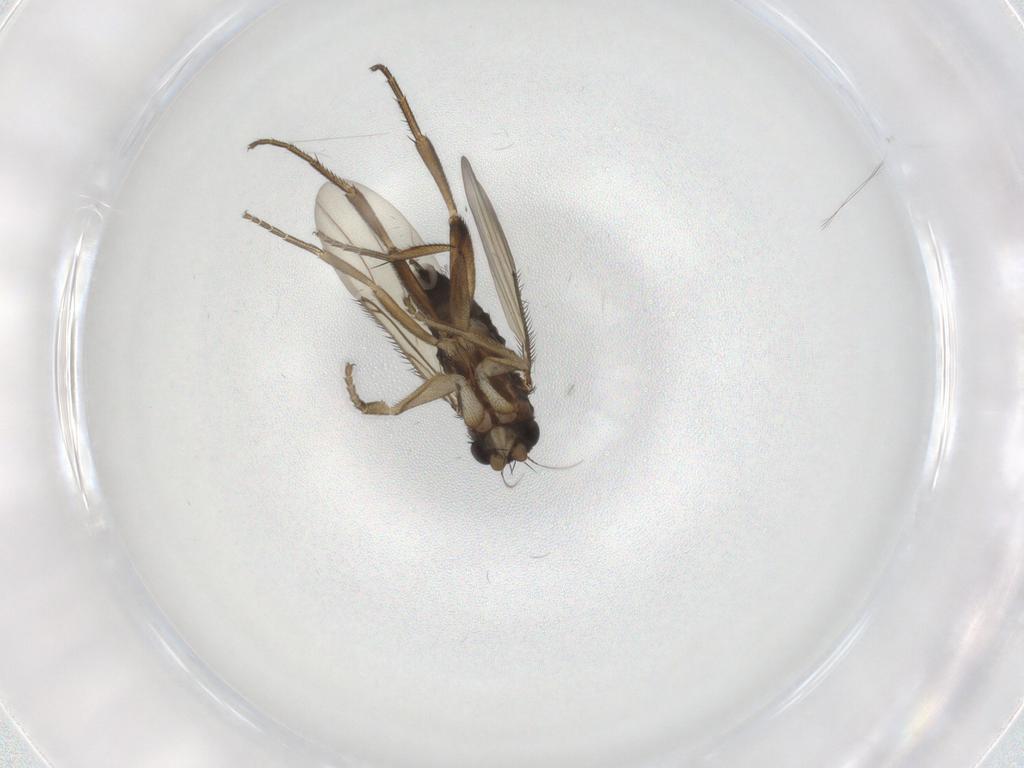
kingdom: Animalia
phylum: Arthropoda
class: Insecta
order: Diptera
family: Phoridae
